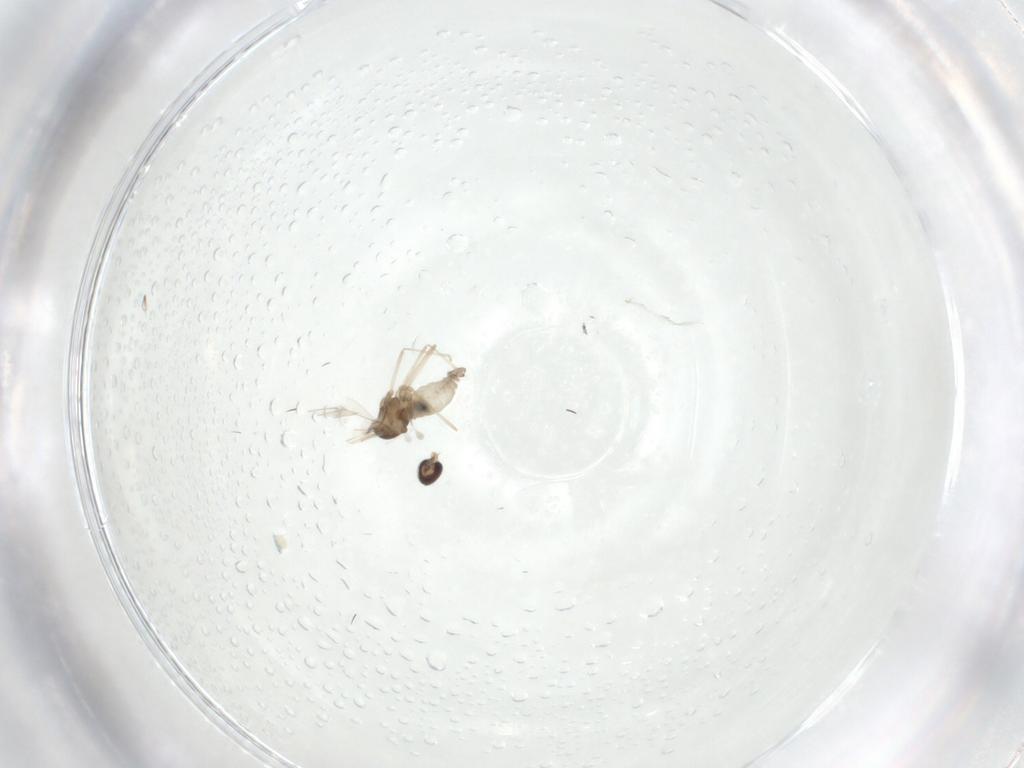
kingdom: Animalia
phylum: Arthropoda
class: Insecta
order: Diptera
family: Cecidomyiidae
